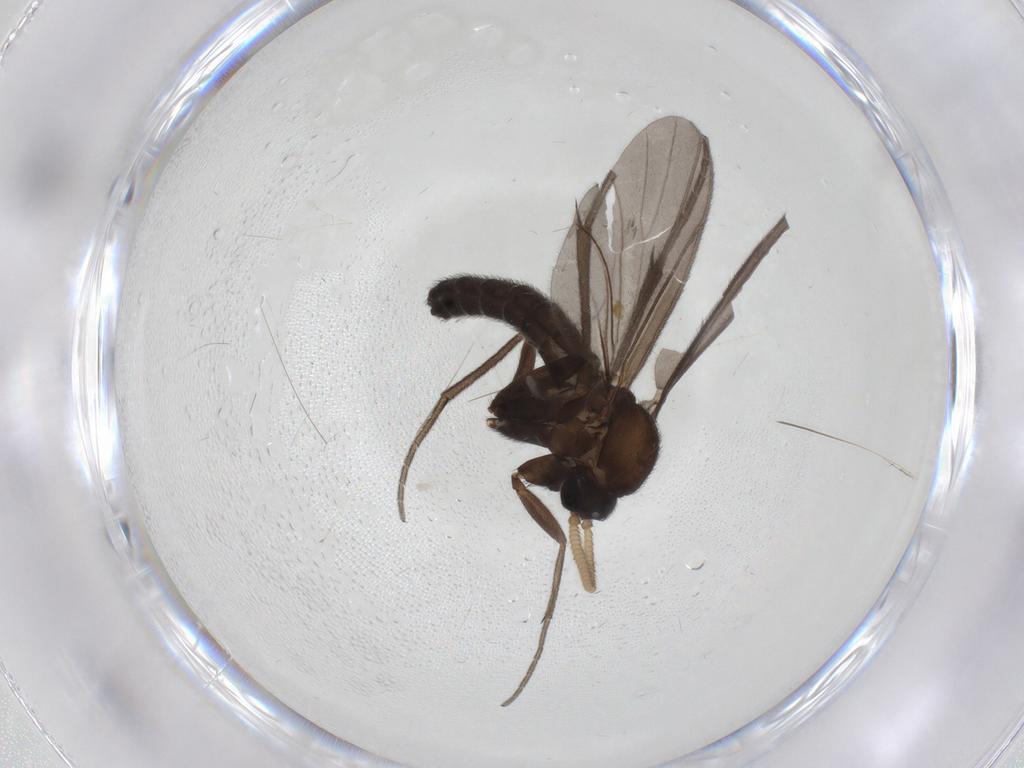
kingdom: Animalia
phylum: Arthropoda
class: Insecta
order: Diptera
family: Mycetophilidae
